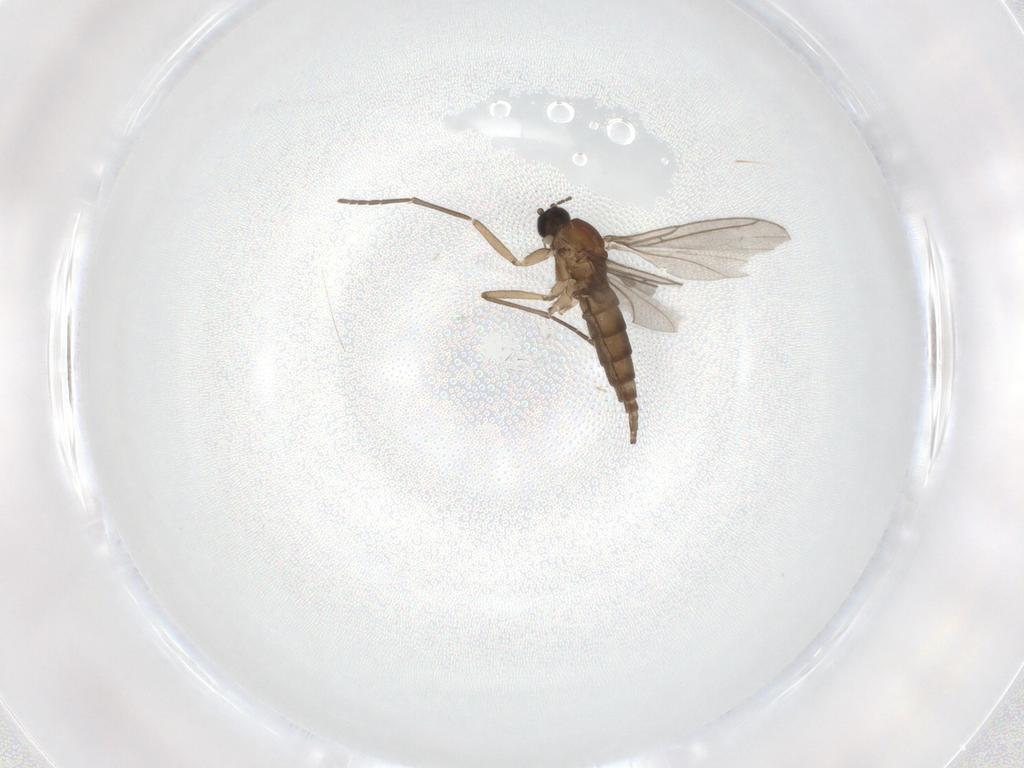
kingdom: Animalia
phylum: Arthropoda
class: Insecta
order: Diptera
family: Sciaridae
